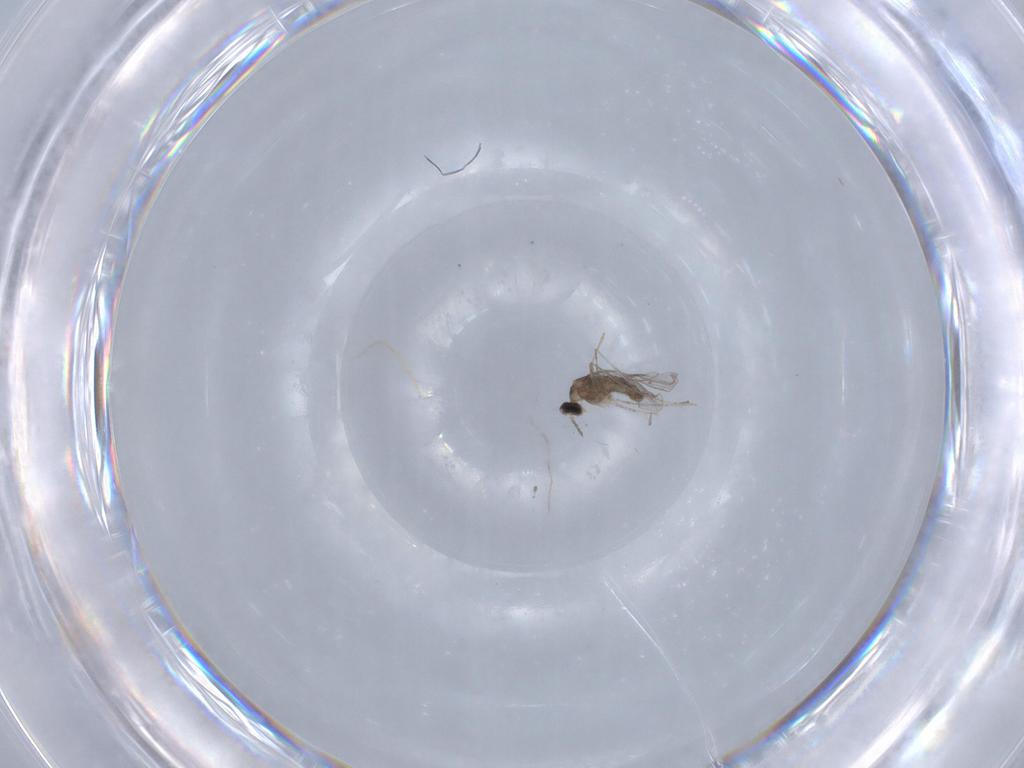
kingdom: Animalia
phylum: Arthropoda
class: Insecta
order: Diptera
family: Cecidomyiidae
